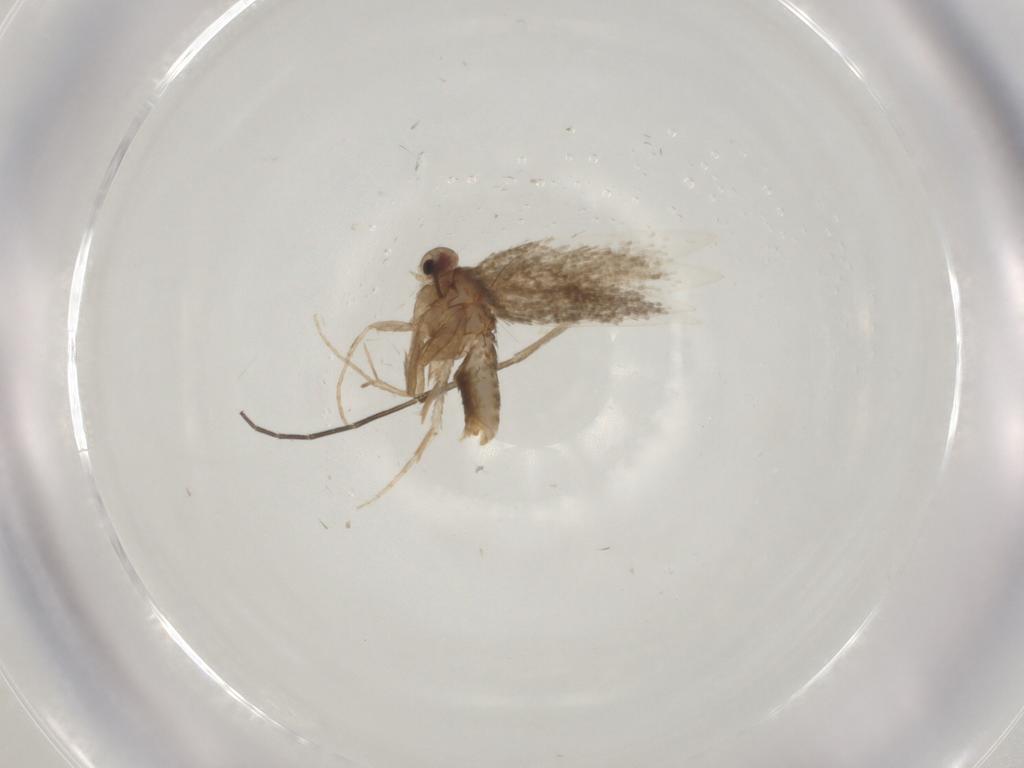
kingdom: Animalia
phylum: Arthropoda
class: Insecta
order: Lepidoptera
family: Psychidae
